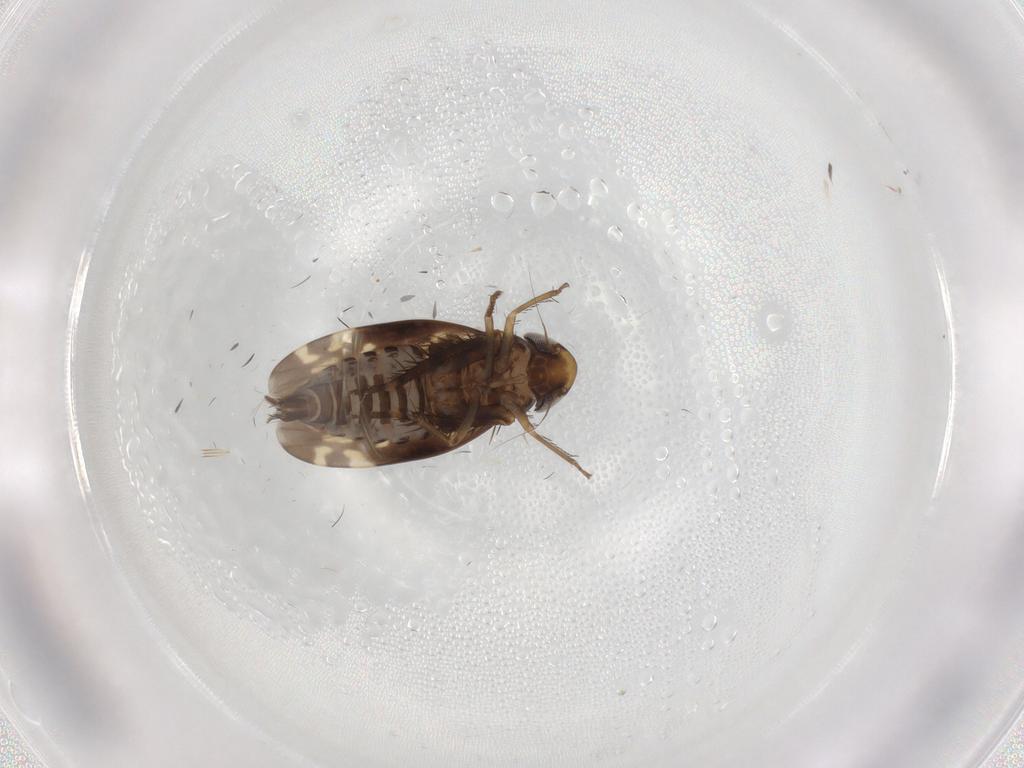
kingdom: Animalia
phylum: Arthropoda
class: Insecta
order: Hemiptera
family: Cicadellidae
